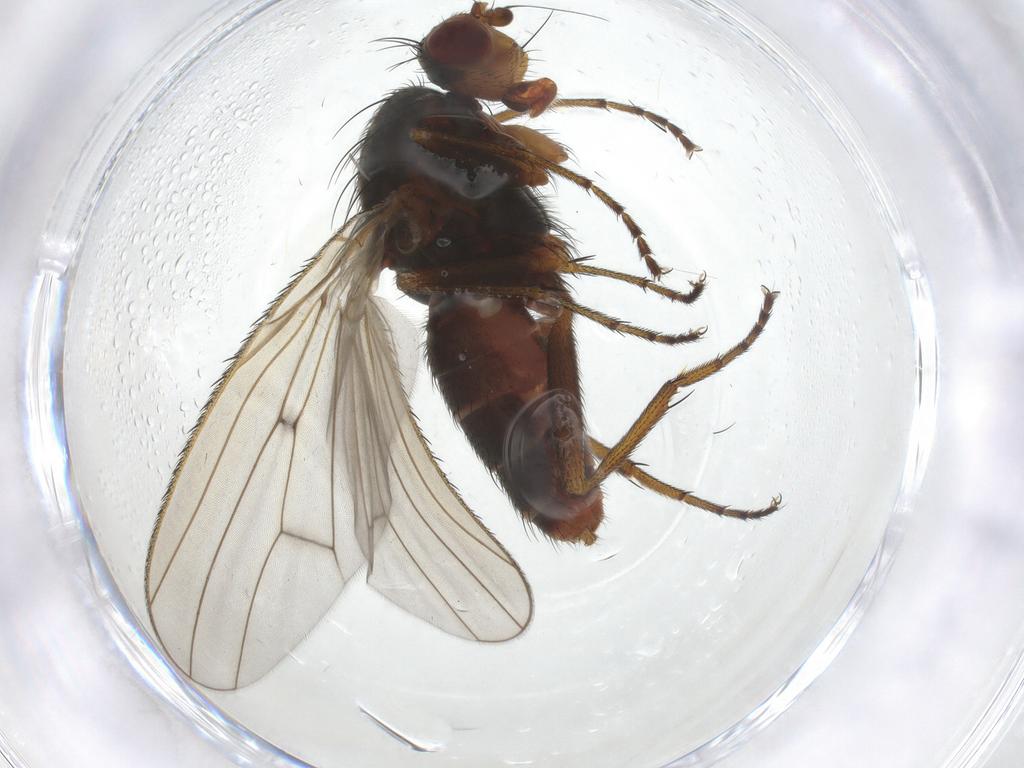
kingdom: Animalia
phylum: Arthropoda
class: Insecta
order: Diptera
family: Heleomyzidae
